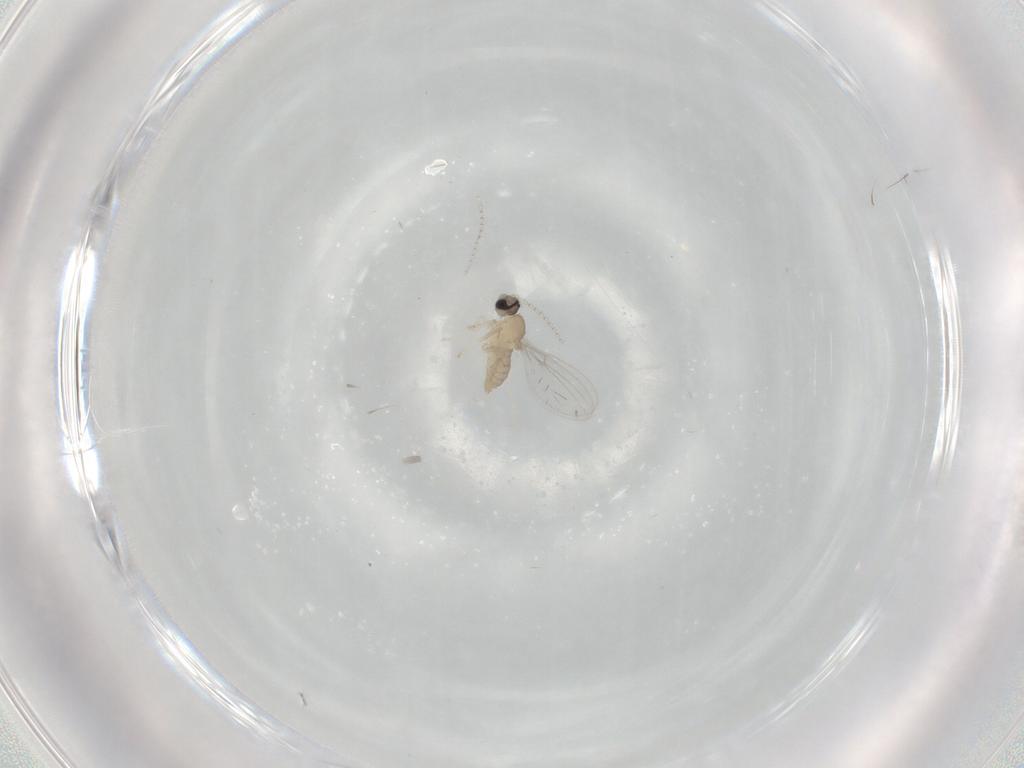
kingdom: Animalia
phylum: Arthropoda
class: Insecta
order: Diptera
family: Cecidomyiidae
